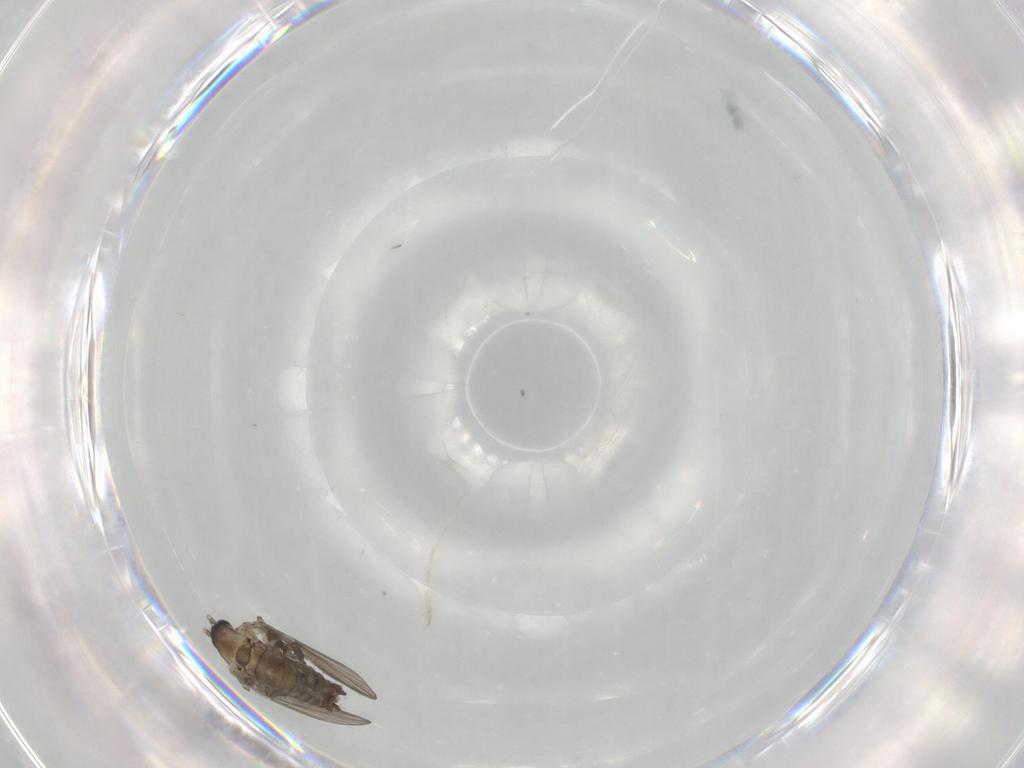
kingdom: Animalia
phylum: Arthropoda
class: Insecta
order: Diptera
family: Psychodidae
